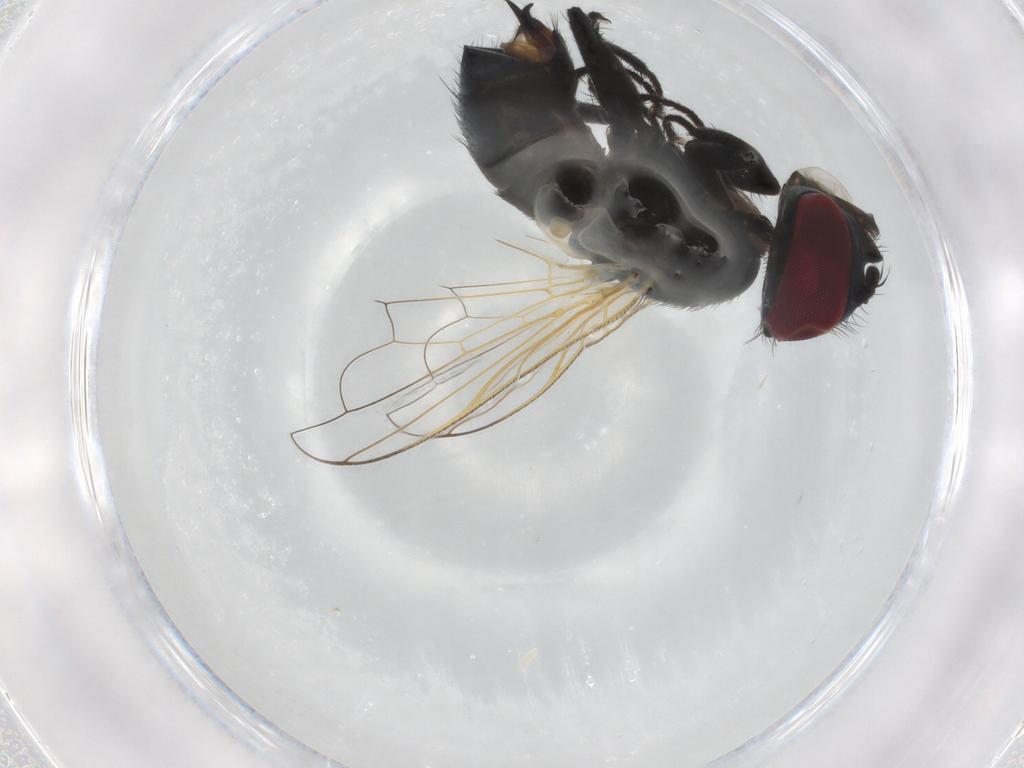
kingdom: Animalia
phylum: Arthropoda
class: Insecta
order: Diptera
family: Tachinidae
